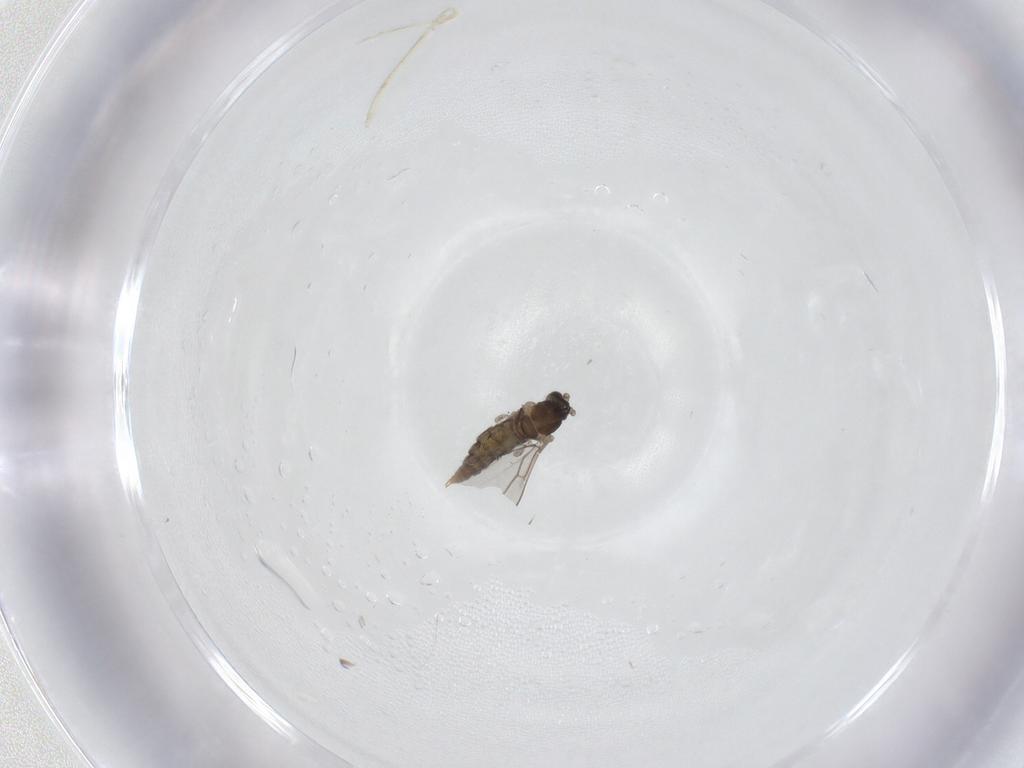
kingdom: Animalia
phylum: Arthropoda
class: Insecta
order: Diptera
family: Cecidomyiidae
